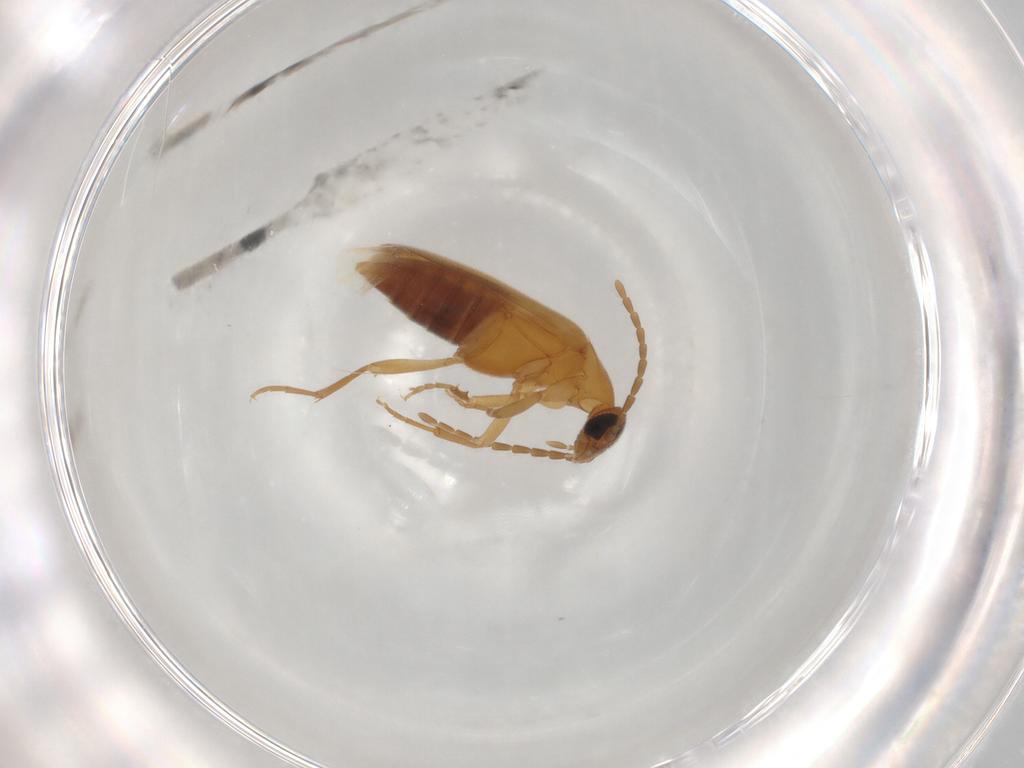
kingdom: Animalia
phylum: Arthropoda
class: Insecta
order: Coleoptera
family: Scraptiidae
